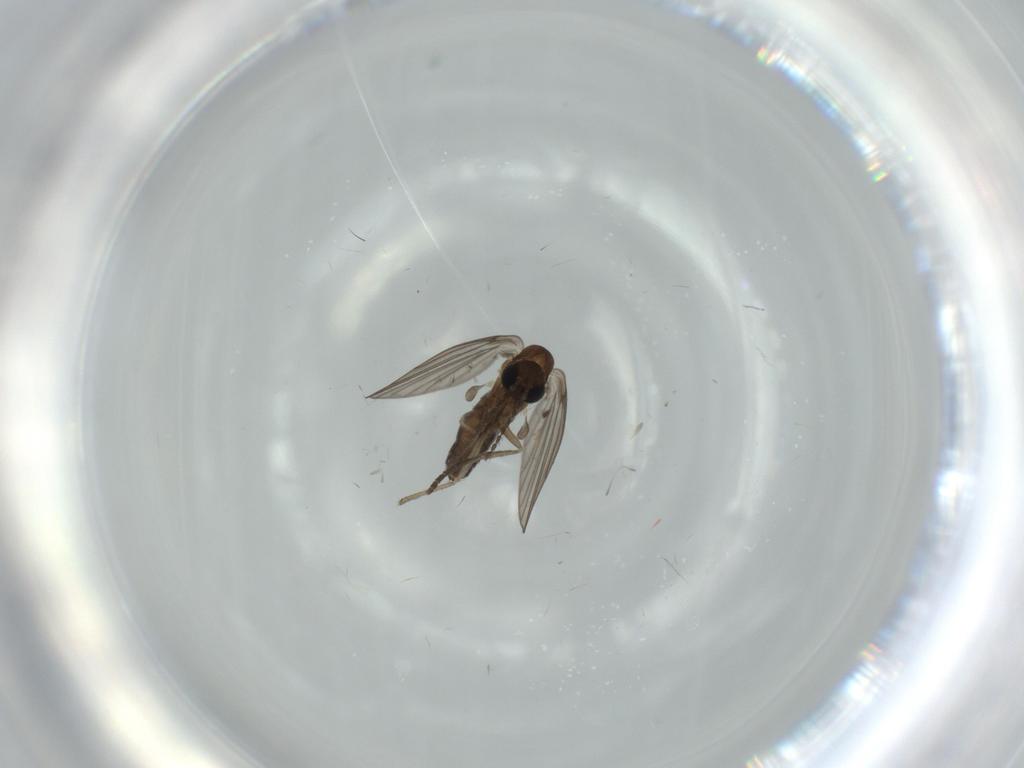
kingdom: Animalia
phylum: Arthropoda
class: Insecta
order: Diptera
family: Psychodidae
